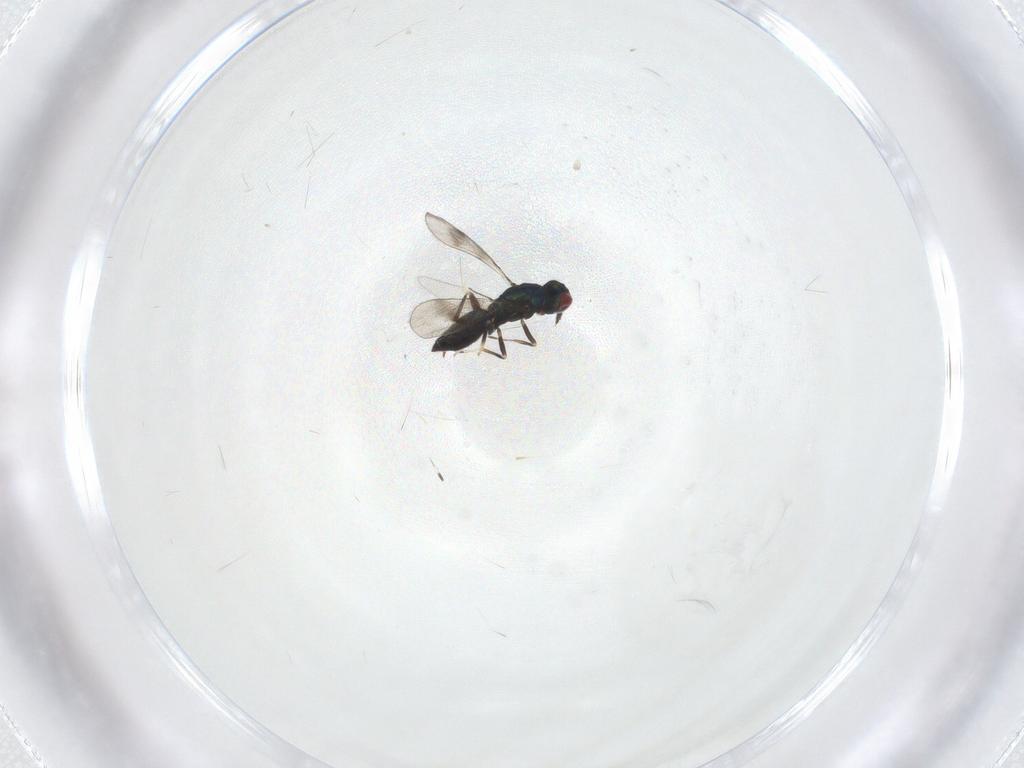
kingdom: Animalia
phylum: Arthropoda
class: Insecta
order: Hymenoptera
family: Eulophidae
